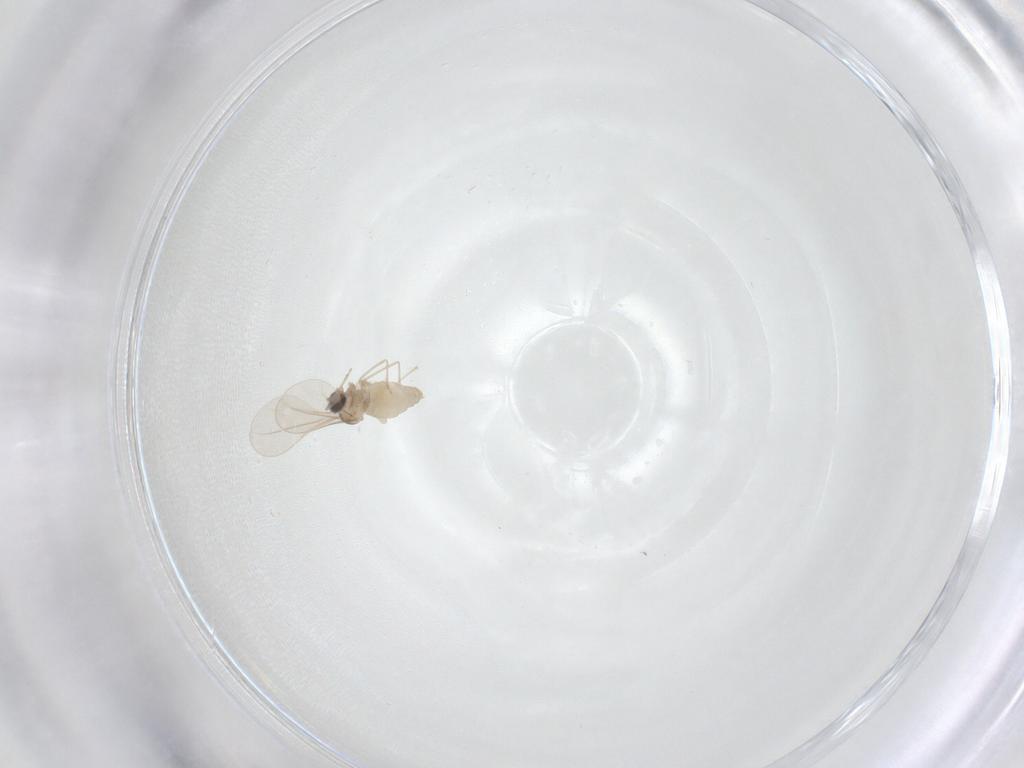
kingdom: Animalia
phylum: Arthropoda
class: Insecta
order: Diptera
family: Cecidomyiidae
